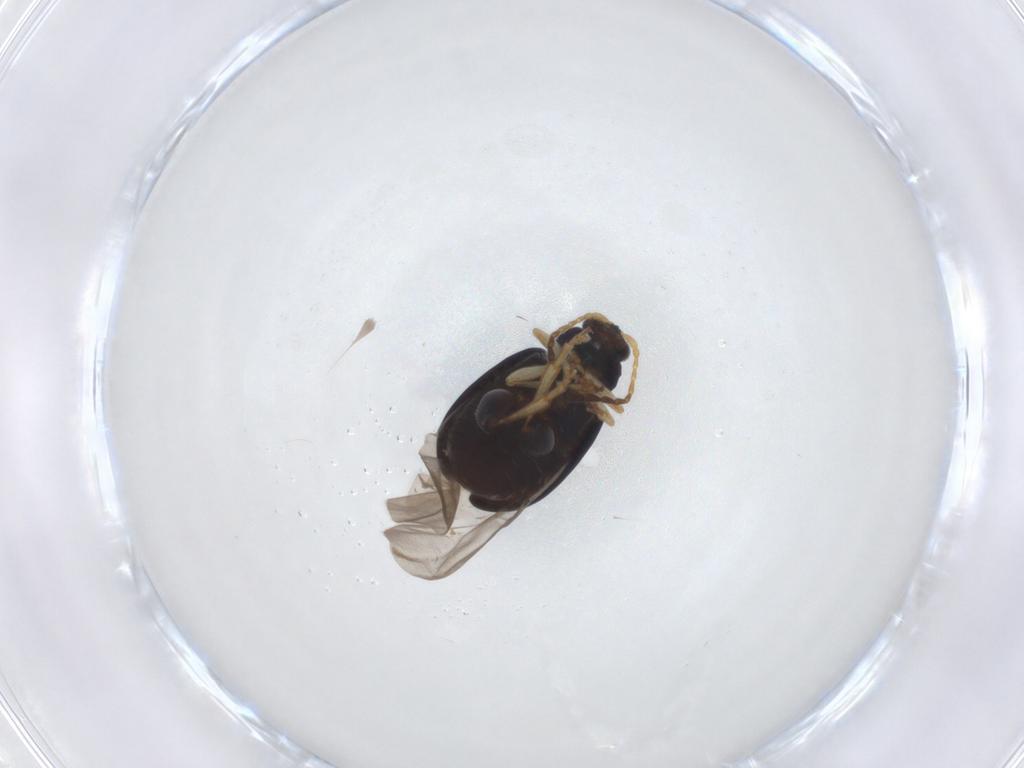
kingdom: Animalia
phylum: Arthropoda
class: Insecta
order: Coleoptera
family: Chrysomelidae
